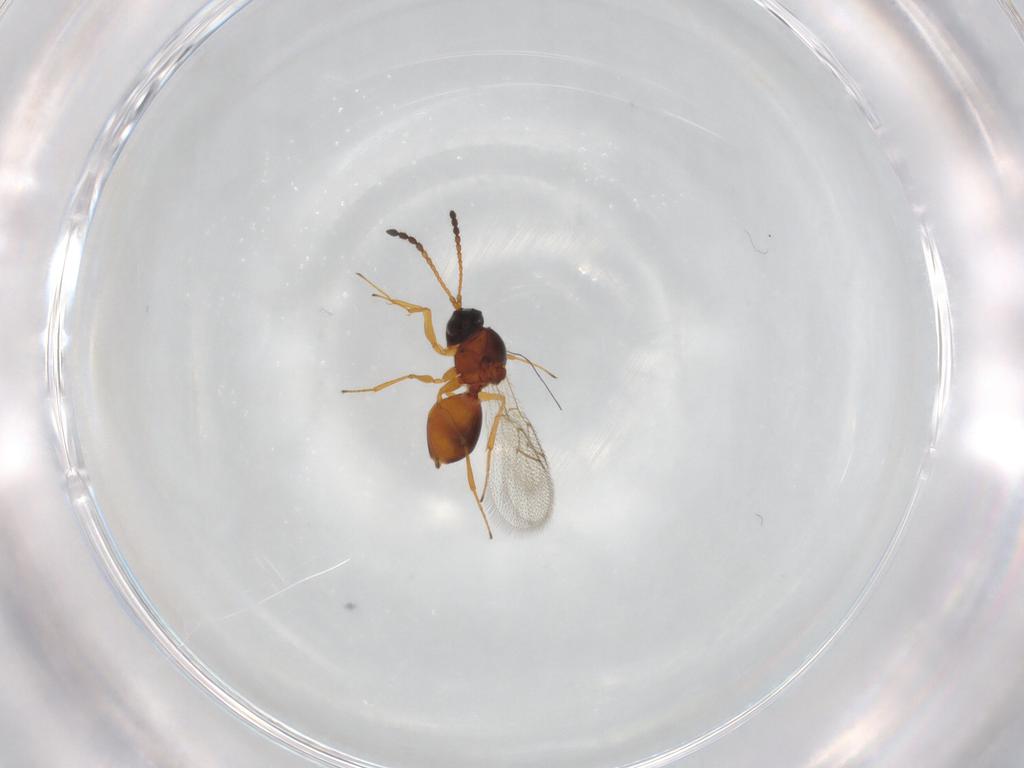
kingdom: Animalia
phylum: Arthropoda
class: Insecta
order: Hymenoptera
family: Figitidae
